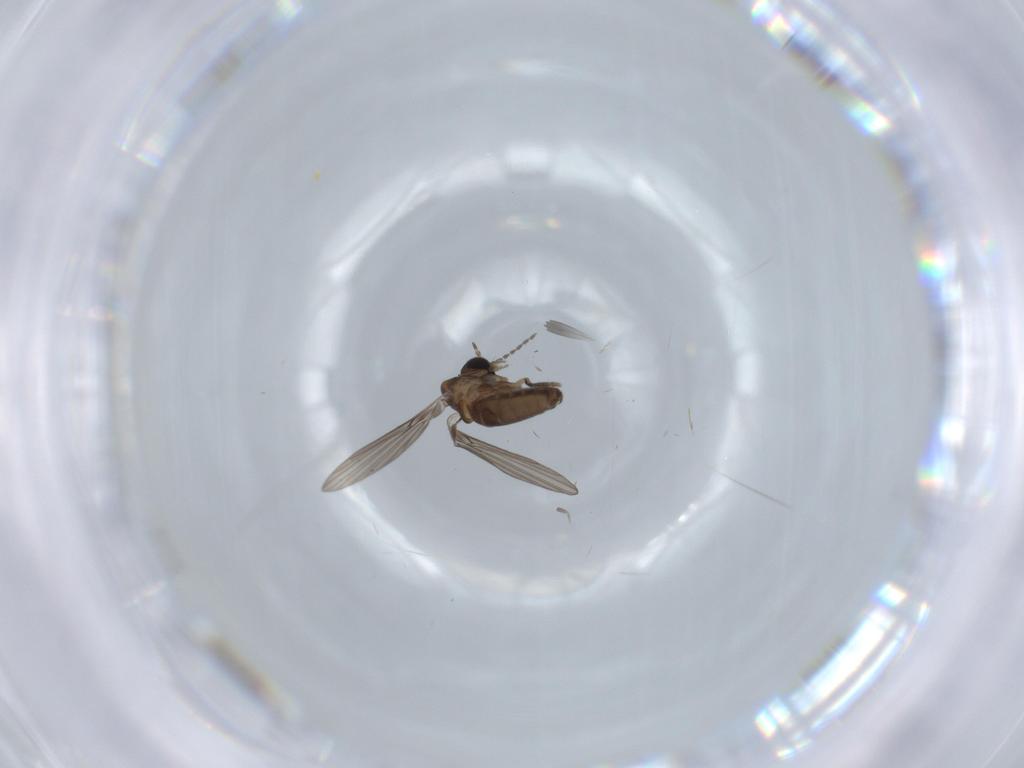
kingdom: Animalia
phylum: Arthropoda
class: Insecta
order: Diptera
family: Psychodidae
